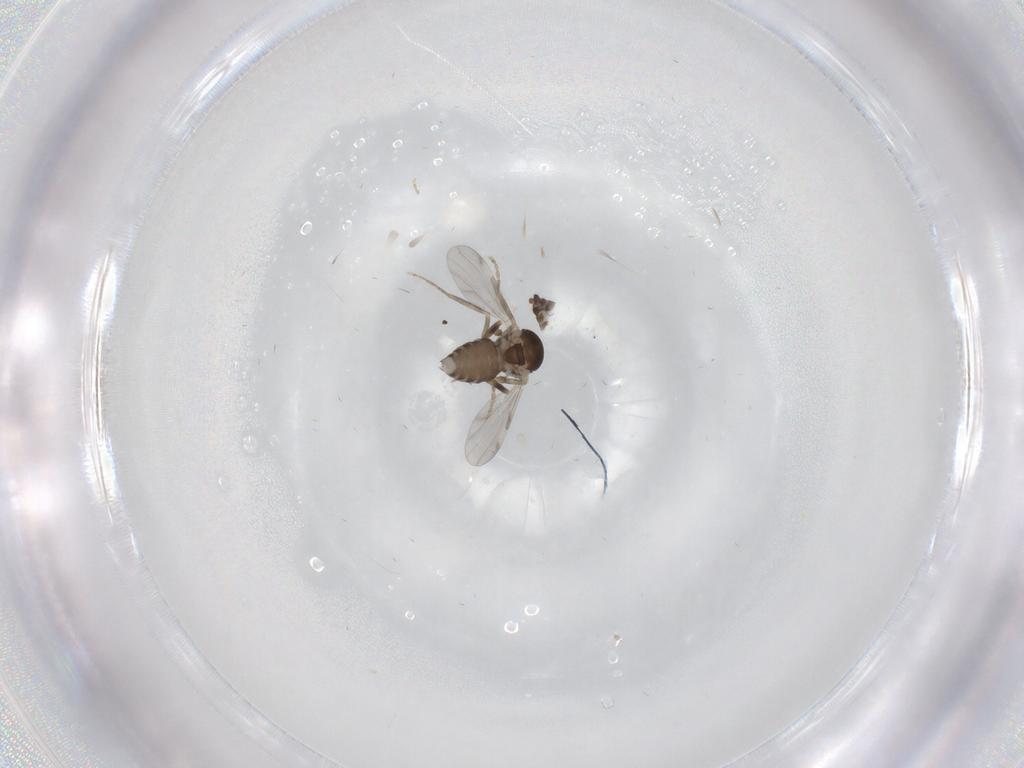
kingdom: Animalia
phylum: Arthropoda
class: Insecta
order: Diptera
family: Ceratopogonidae
